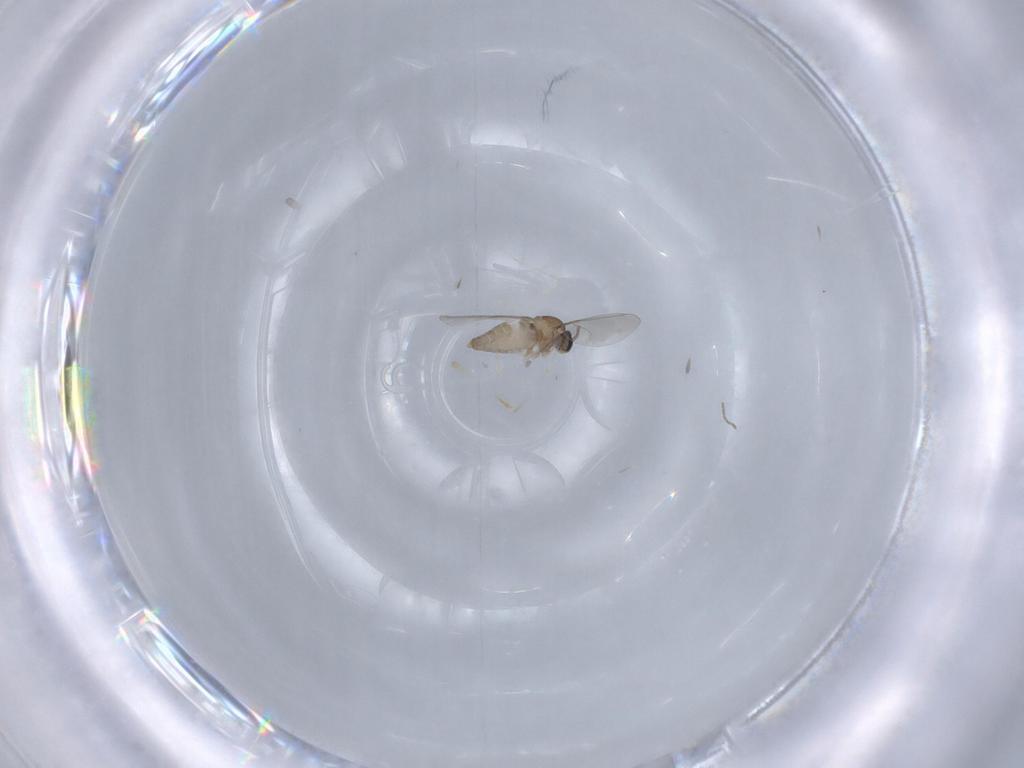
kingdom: Animalia
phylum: Arthropoda
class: Insecta
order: Diptera
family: Cecidomyiidae
